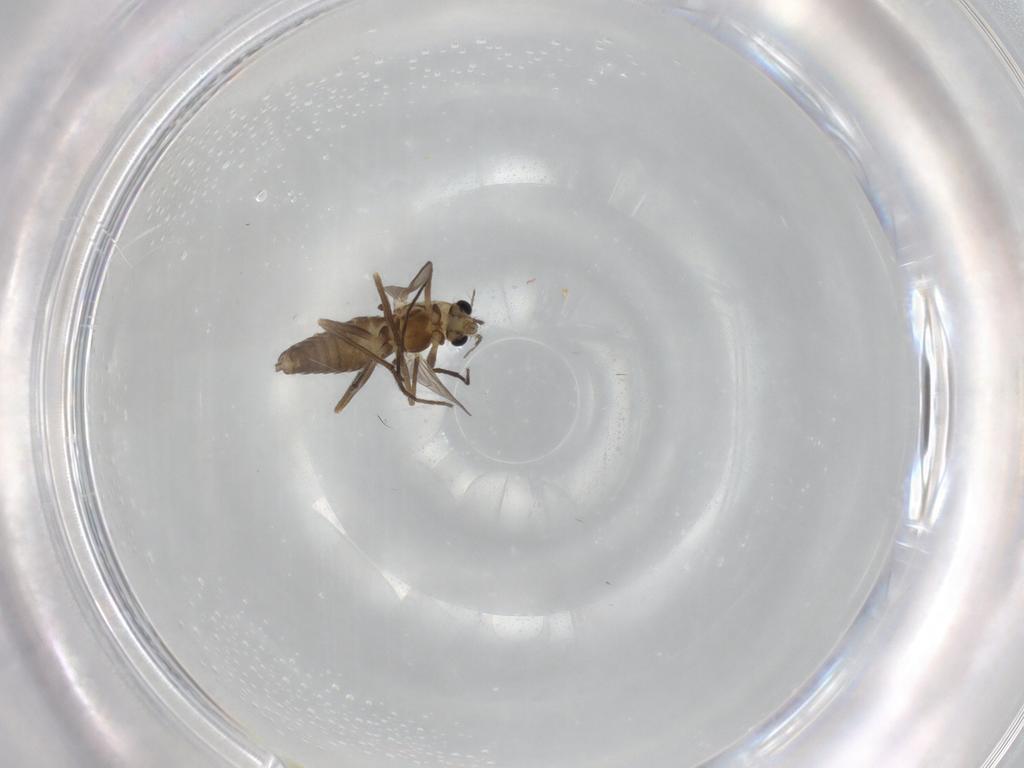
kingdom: Animalia
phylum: Arthropoda
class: Insecta
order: Diptera
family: Chironomidae
